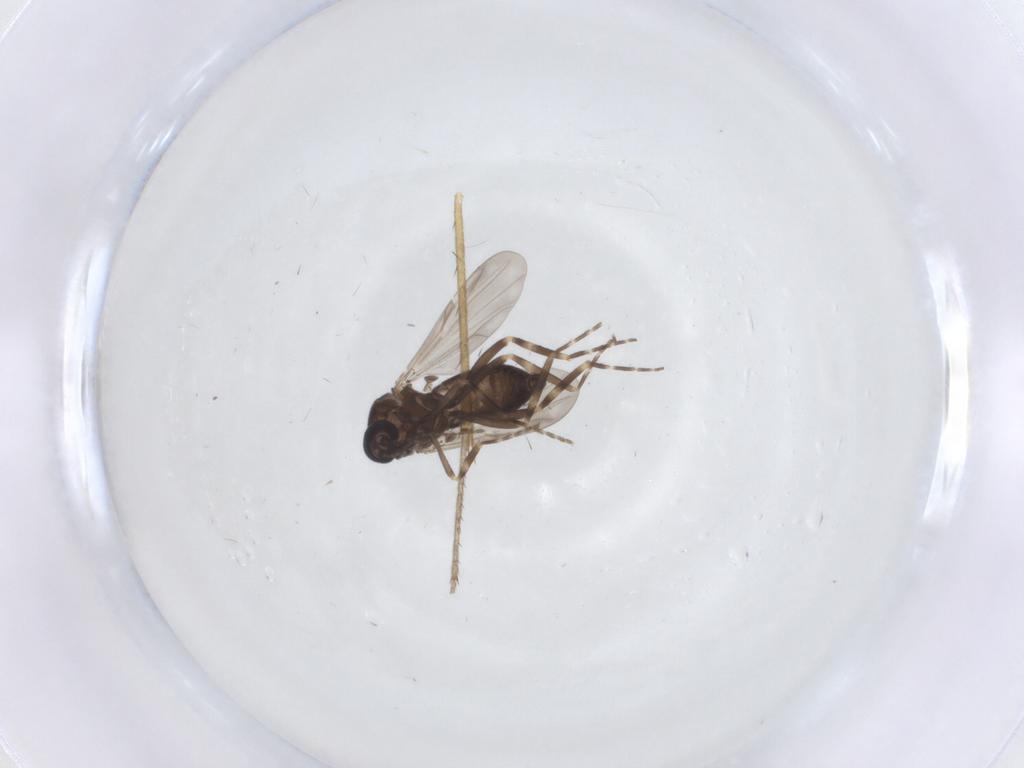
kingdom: Animalia
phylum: Arthropoda
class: Insecta
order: Diptera
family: Ceratopogonidae
